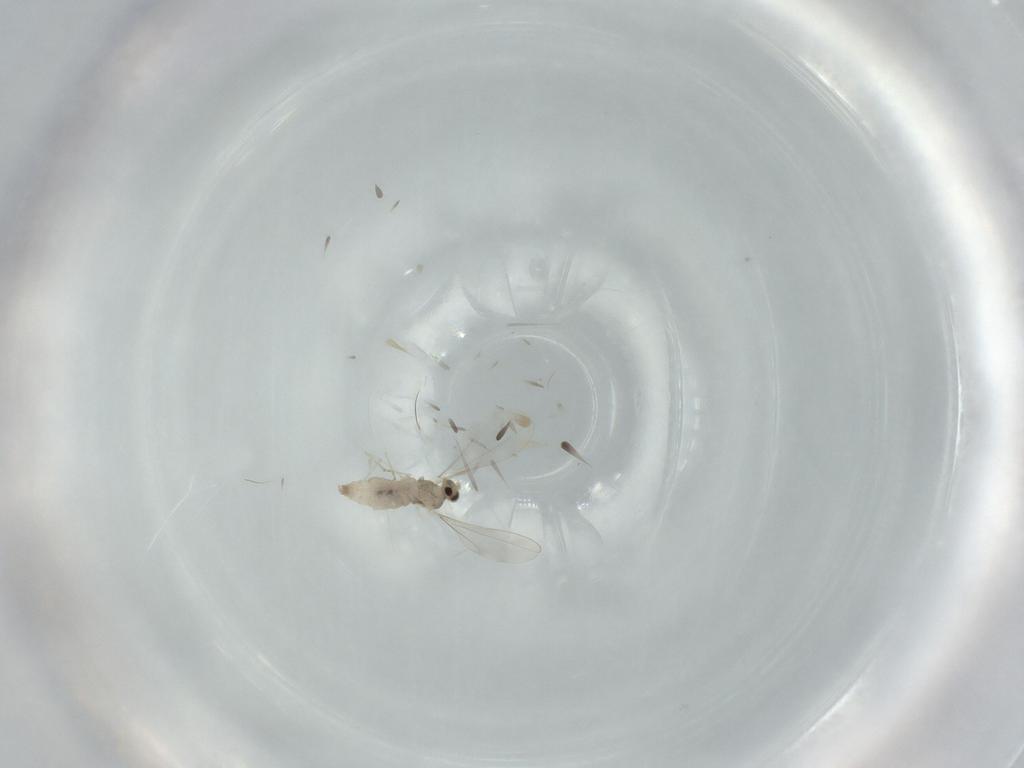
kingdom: Animalia
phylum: Arthropoda
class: Insecta
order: Diptera
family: Cecidomyiidae
